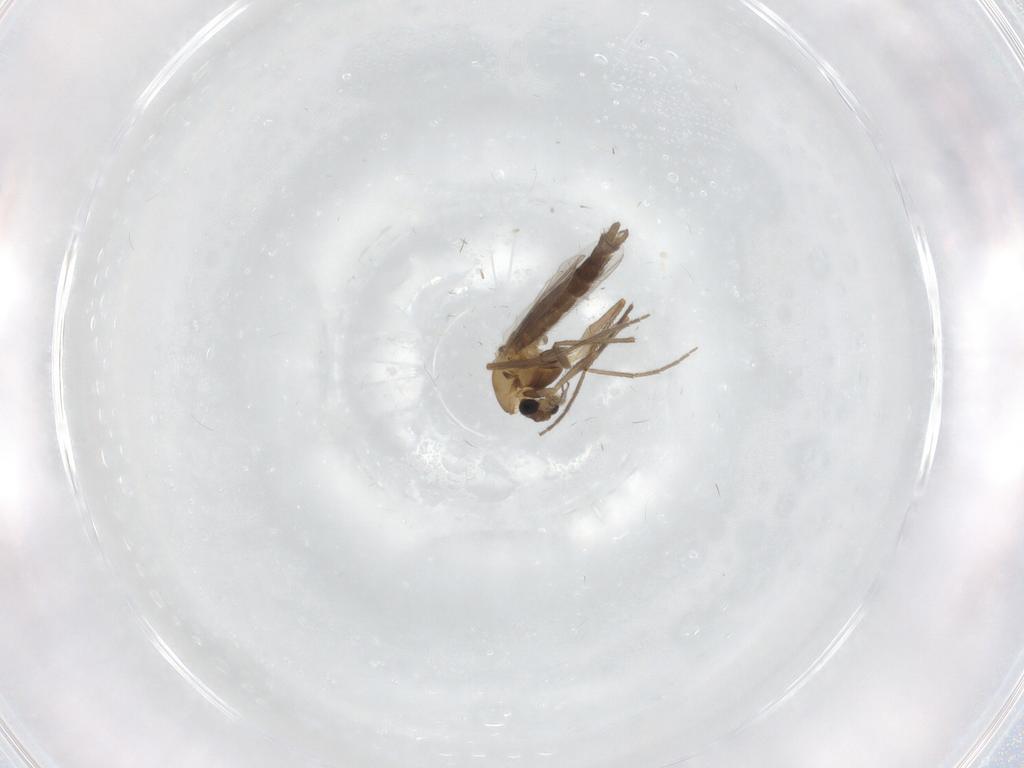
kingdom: Animalia
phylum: Arthropoda
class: Insecta
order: Diptera
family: Chironomidae
